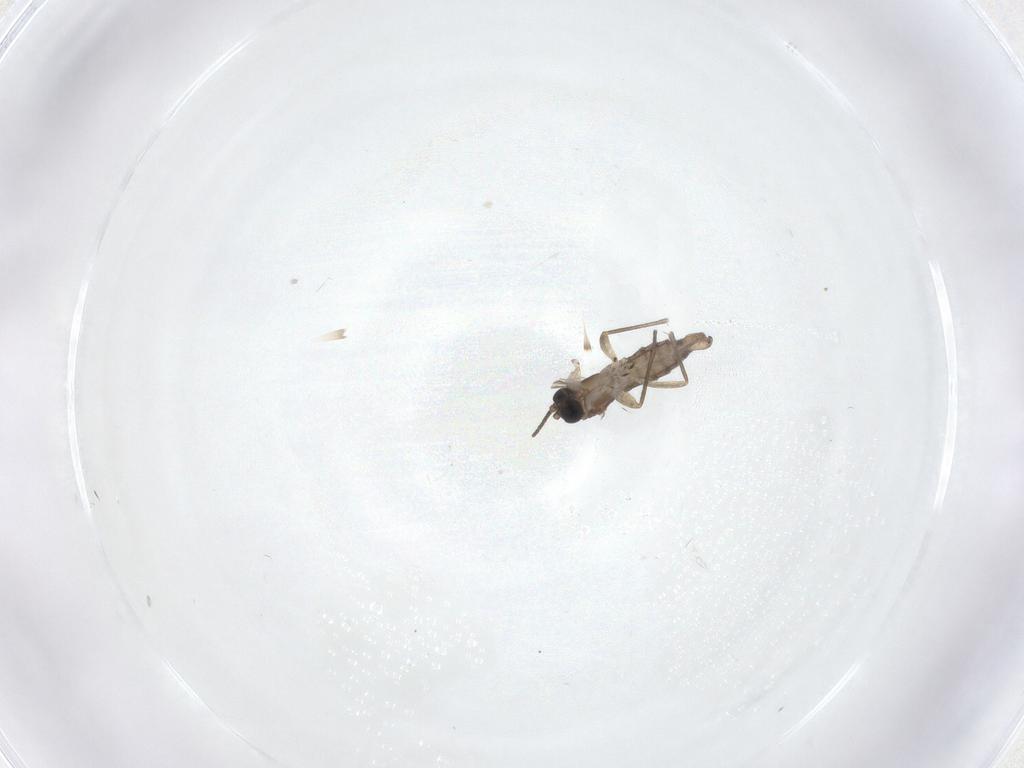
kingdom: Animalia
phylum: Arthropoda
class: Insecta
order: Diptera
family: Sciaridae
